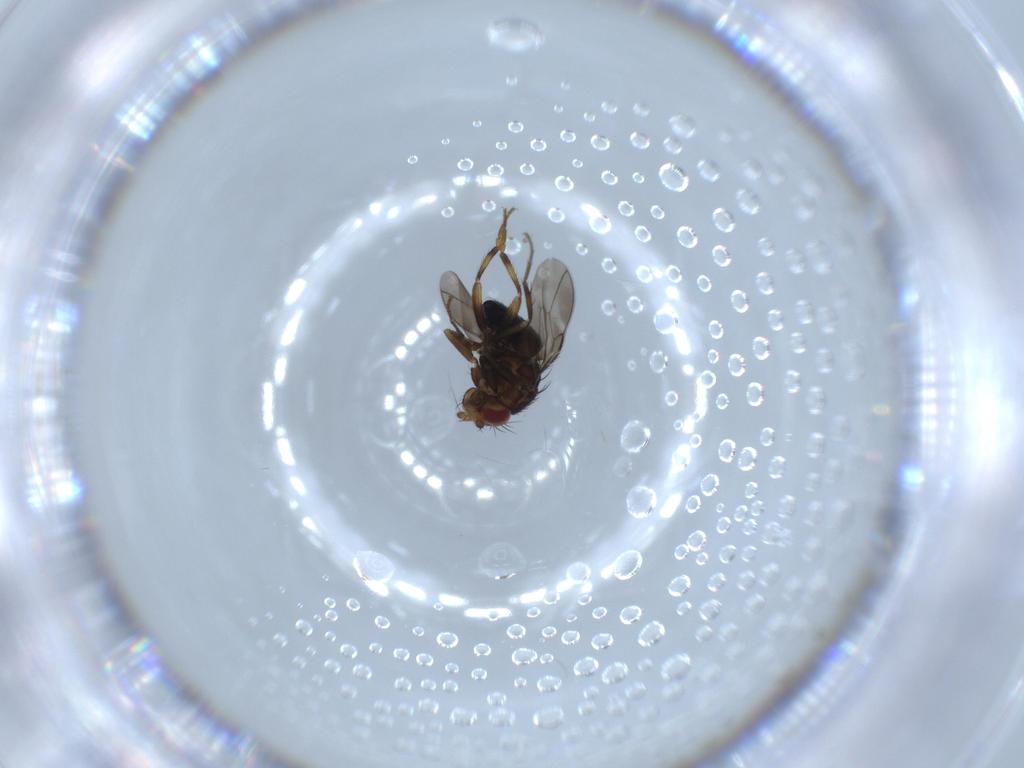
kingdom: Animalia
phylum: Arthropoda
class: Insecta
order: Diptera
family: Sphaeroceridae
